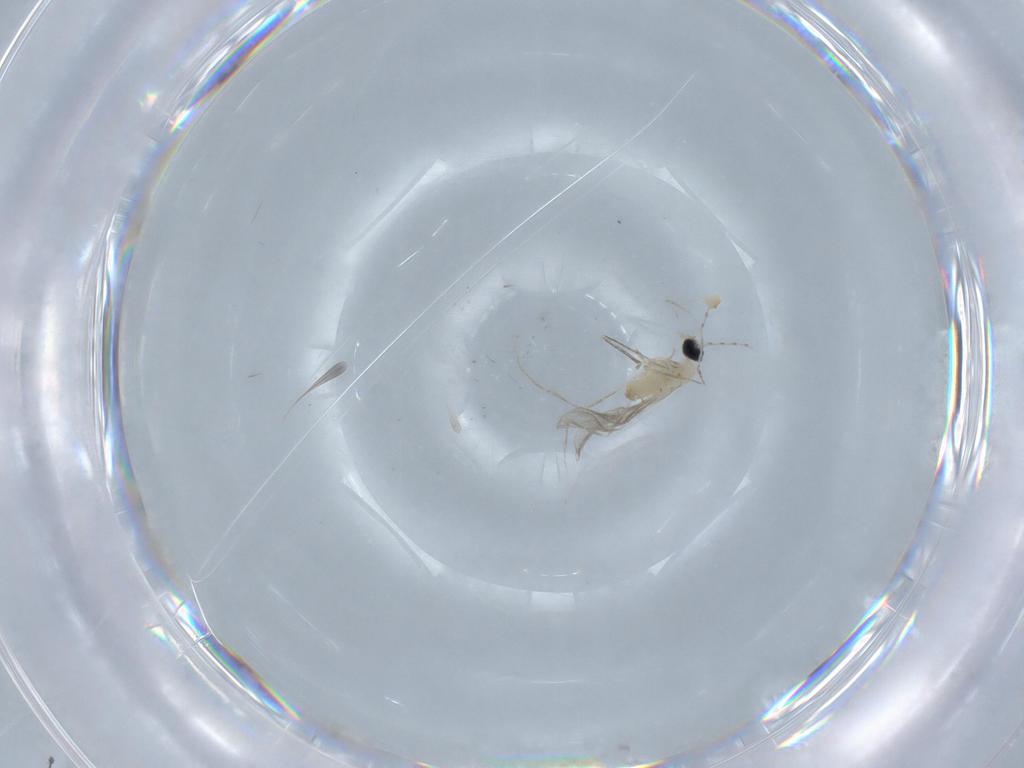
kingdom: Animalia
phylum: Arthropoda
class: Insecta
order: Diptera
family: Cecidomyiidae
